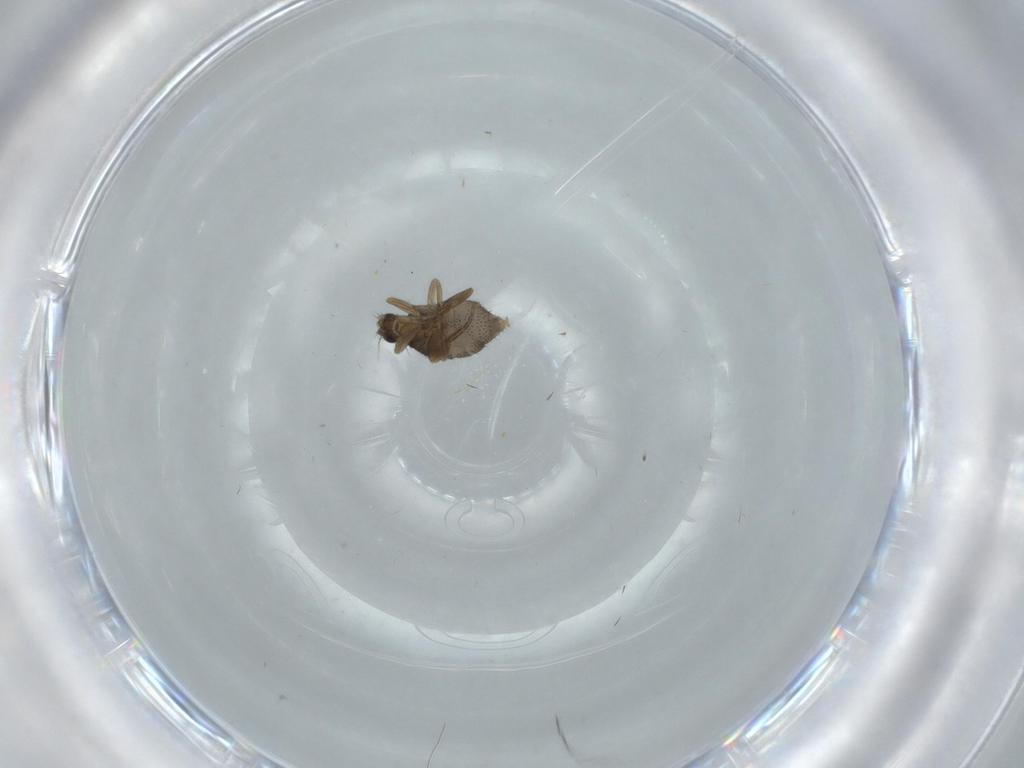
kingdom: Animalia
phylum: Arthropoda
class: Insecta
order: Diptera
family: Phoridae
